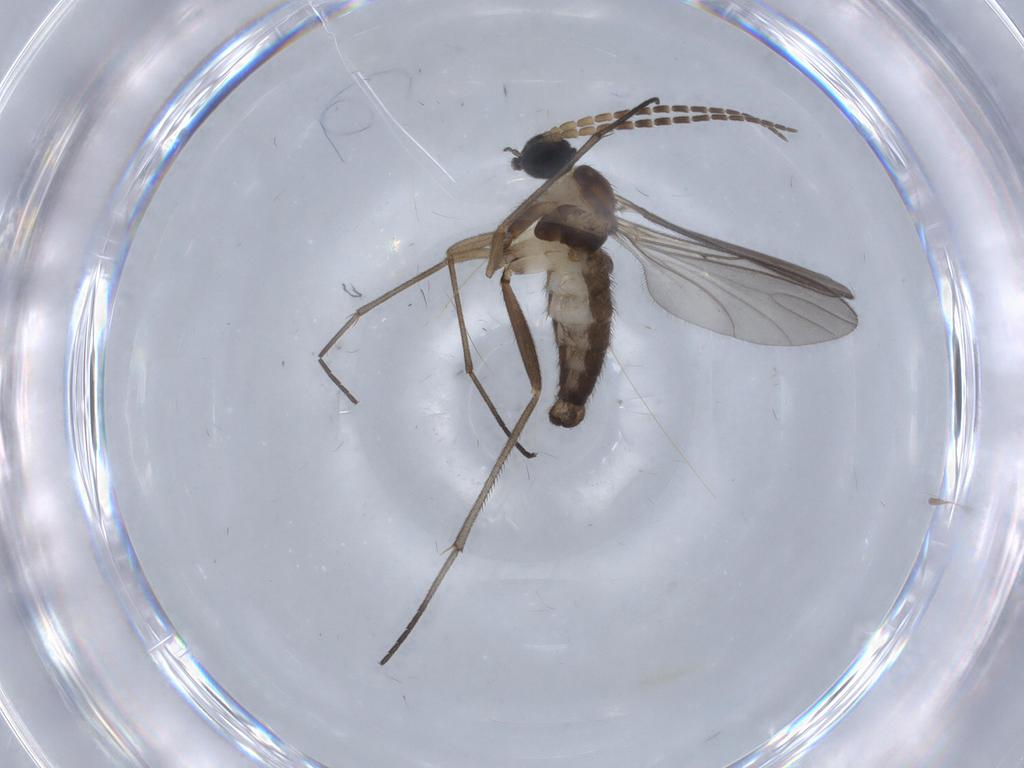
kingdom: Animalia
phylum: Arthropoda
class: Insecta
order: Diptera
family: Sciaridae
